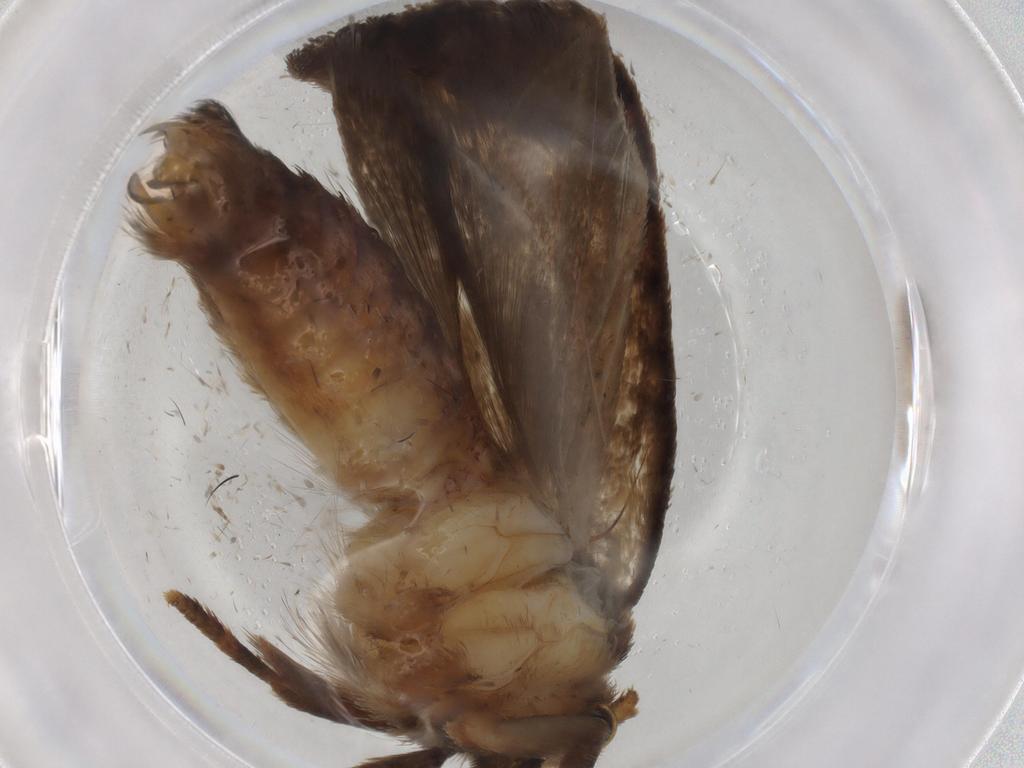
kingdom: Animalia
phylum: Arthropoda
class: Insecta
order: Lepidoptera
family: Tineidae
